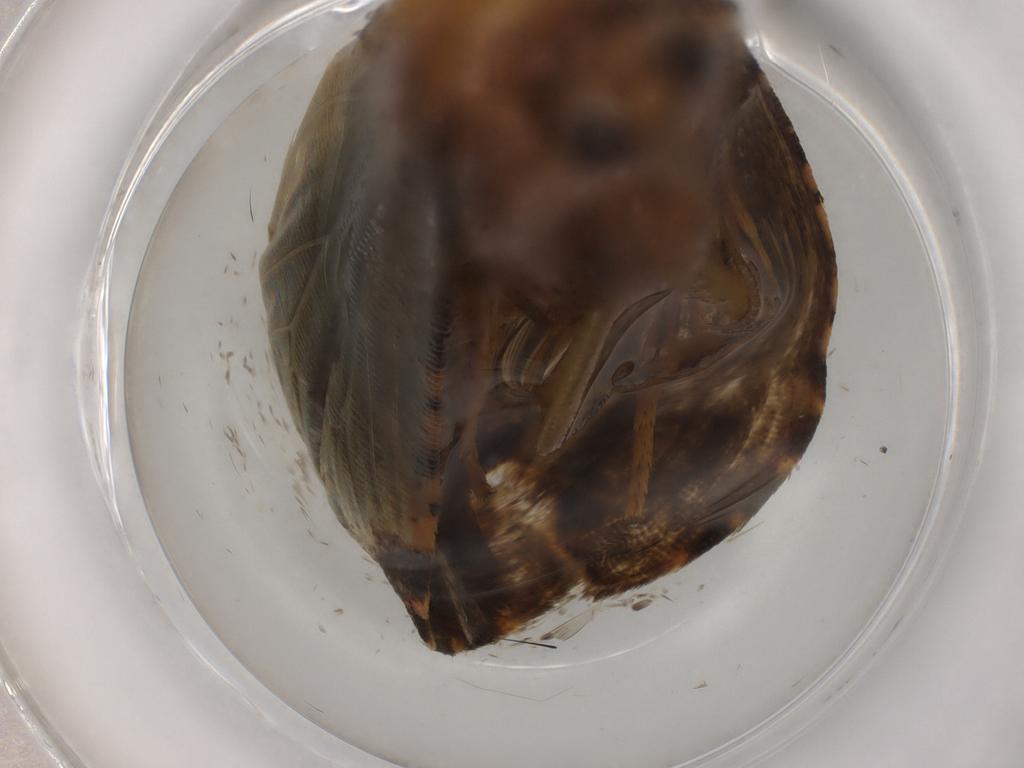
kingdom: Animalia
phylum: Arthropoda
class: Insecta
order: Lepidoptera
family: Erebidae
